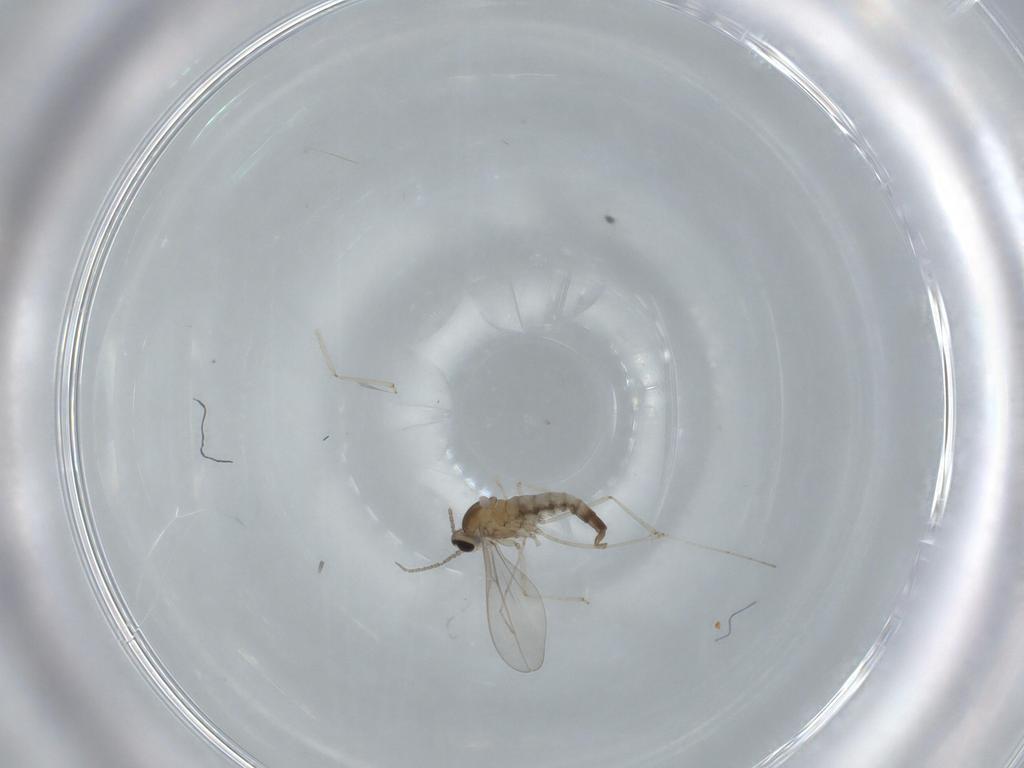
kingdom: Animalia
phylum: Arthropoda
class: Insecta
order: Diptera
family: Cecidomyiidae
